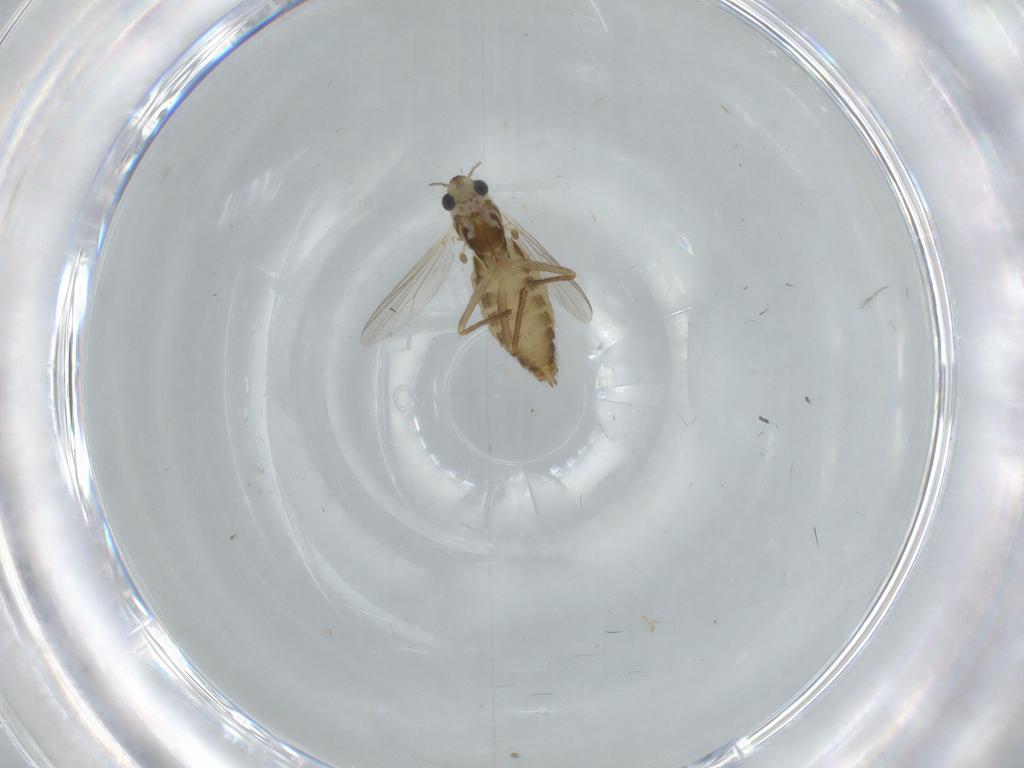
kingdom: Animalia
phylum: Arthropoda
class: Insecta
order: Diptera
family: Chironomidae
